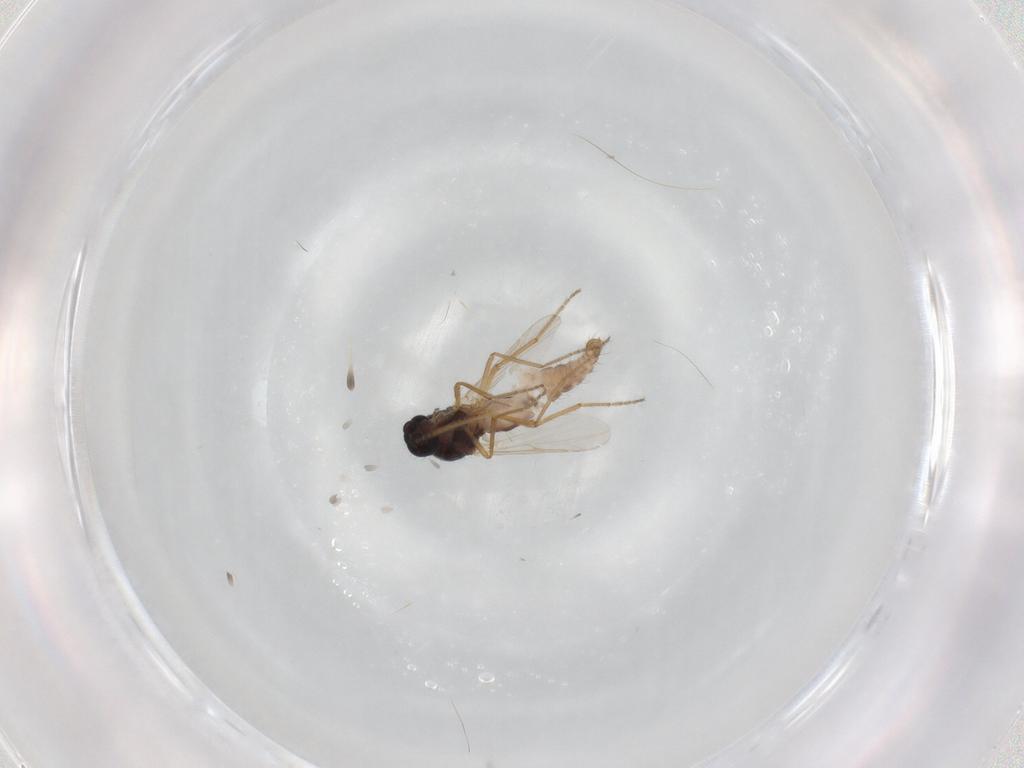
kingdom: Animalia
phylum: Arthropoda
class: Insecta
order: Diptera
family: Ceratopogonidae
